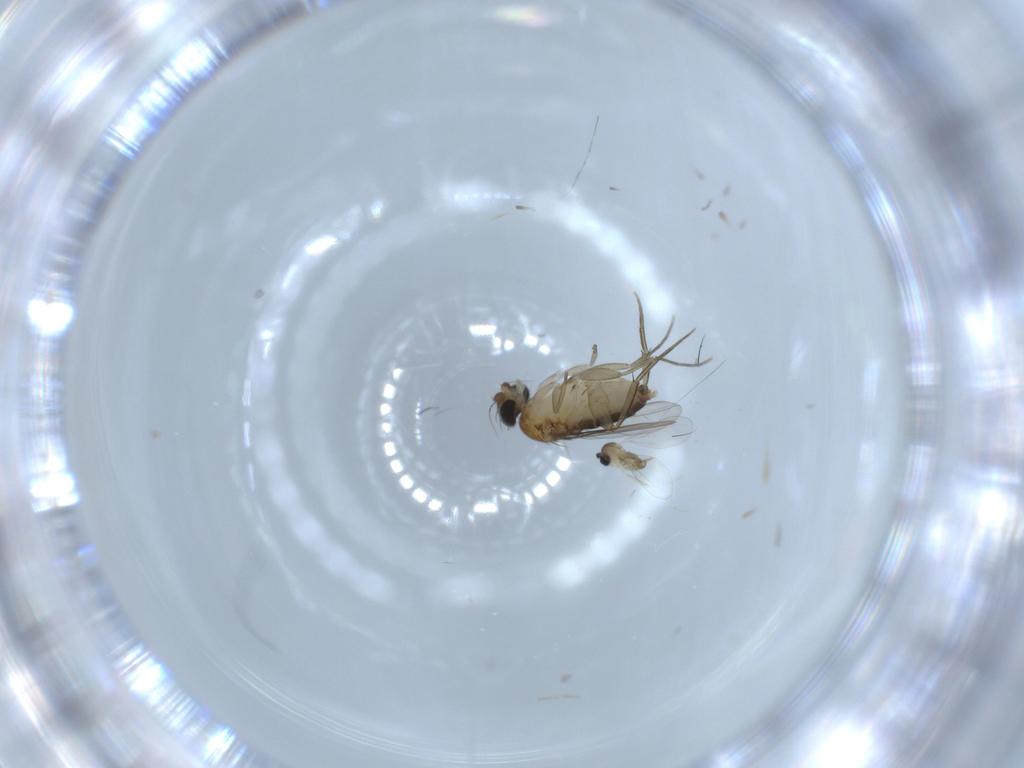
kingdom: Animalia
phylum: Arthropoda
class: Insecta
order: Diptera
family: Phoridae
